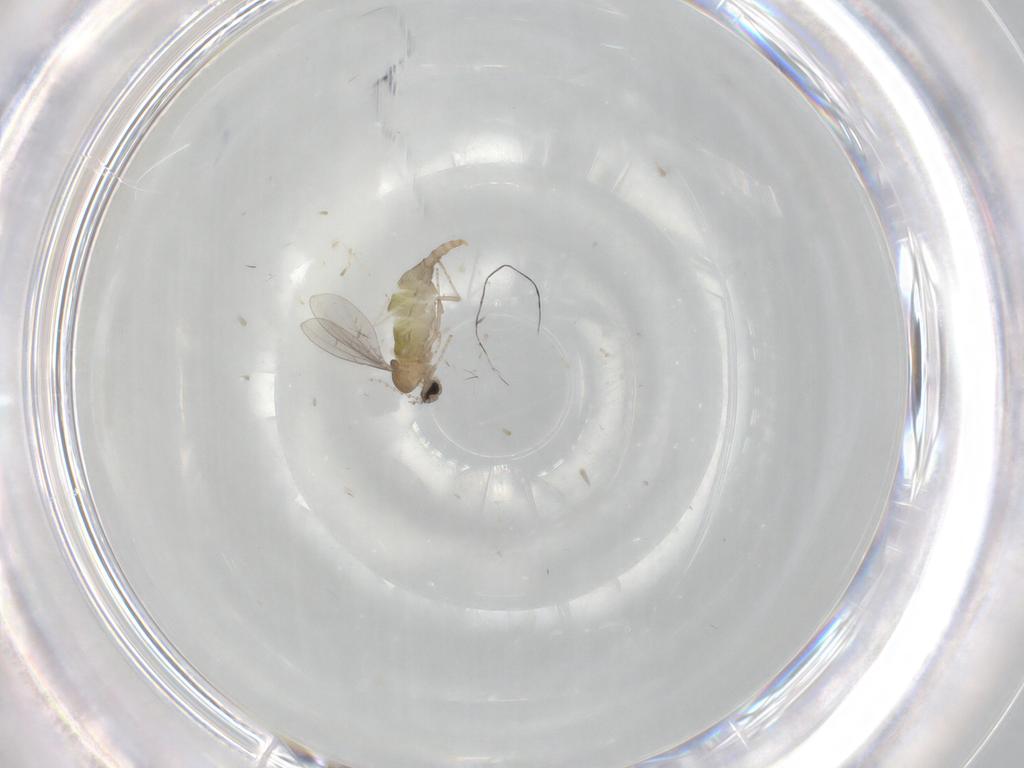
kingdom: Animalia
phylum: Arthropoda
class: Insecta
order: Diptera
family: Cecidomyiidae
